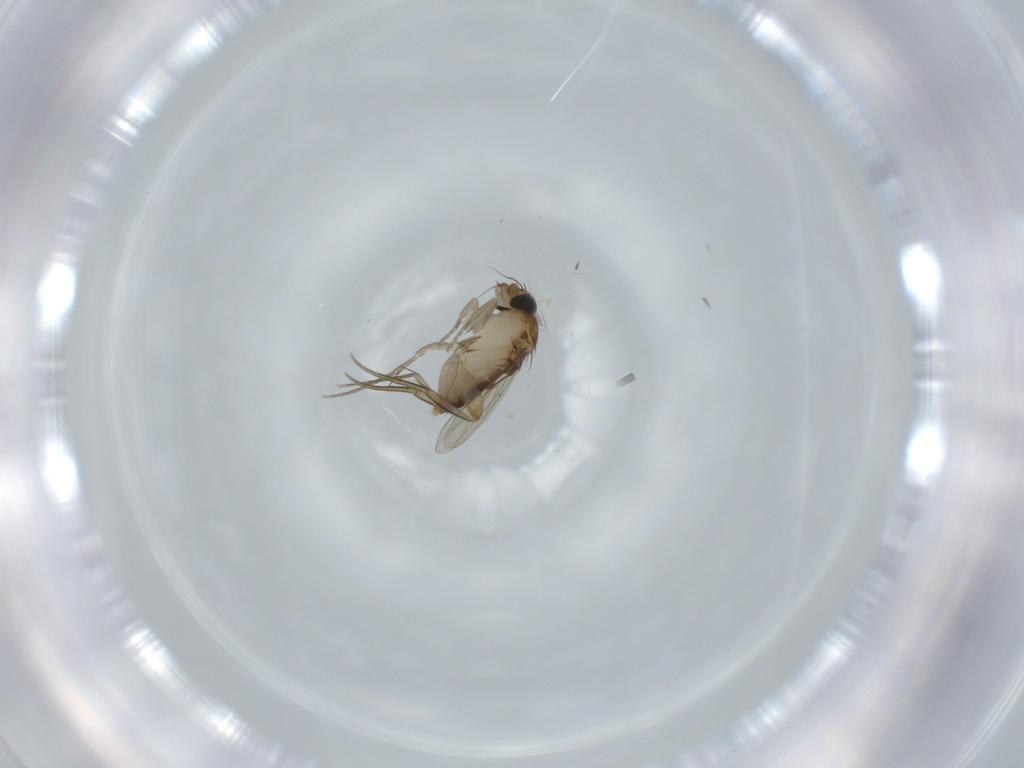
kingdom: Animalia
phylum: Arthropoda
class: Insecta
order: Diptera
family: Phoridae
